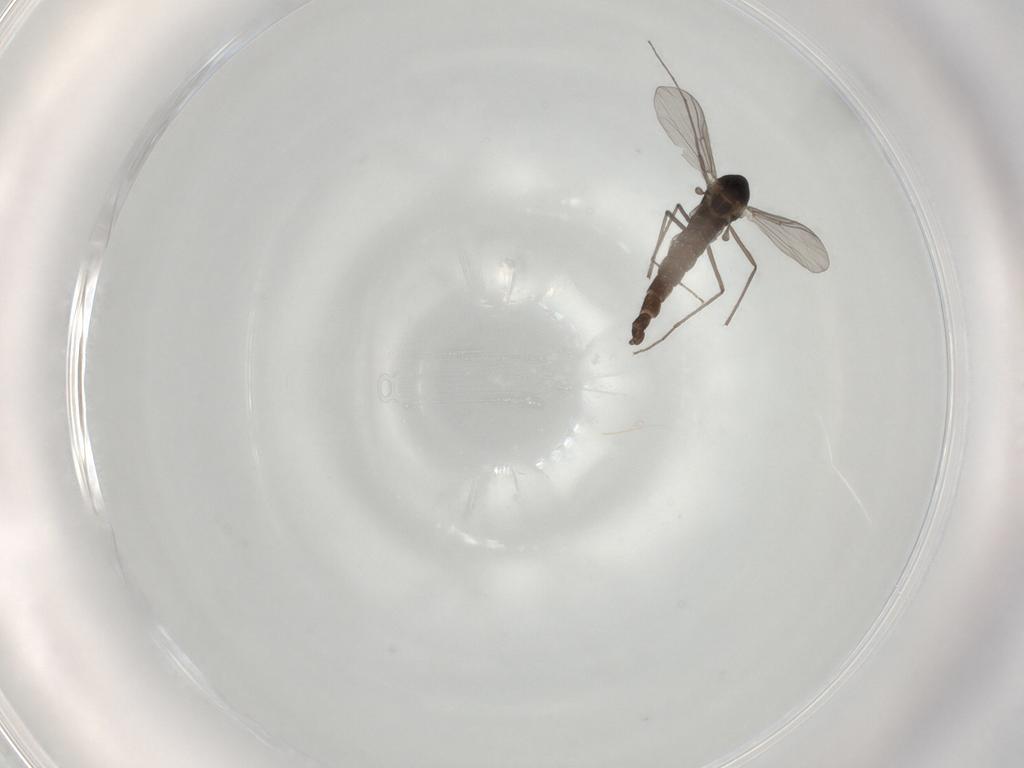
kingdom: Animalia
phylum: Arthropoda
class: Insecta
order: Diptera
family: Chironomidae
